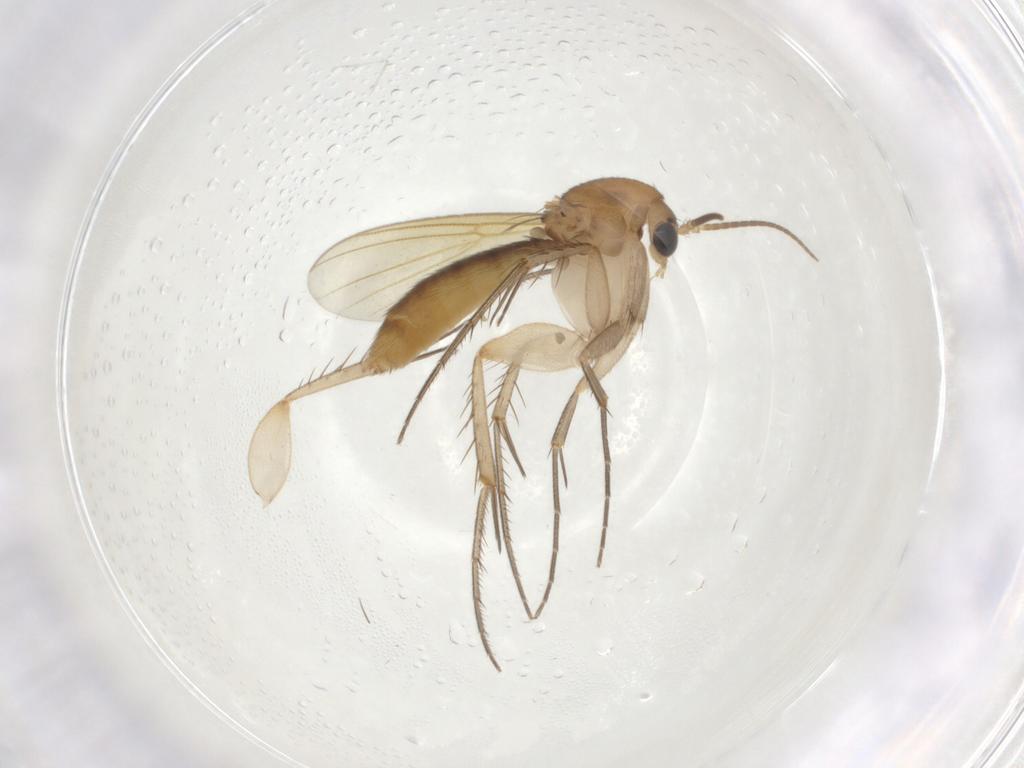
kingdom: Animalia
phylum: Arthropoda
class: Insecta
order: Diptera
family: Mycetophilidae
